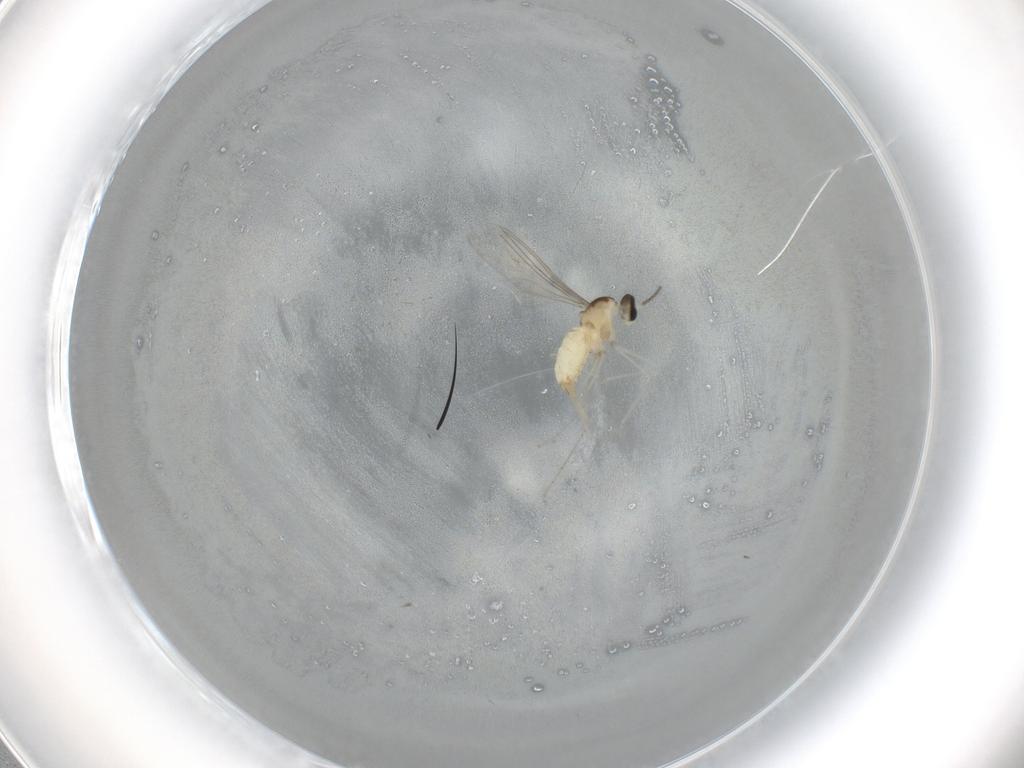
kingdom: Animalia
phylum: Arthropoda
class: Insecta
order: Diptera
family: Cecidomyiidae
